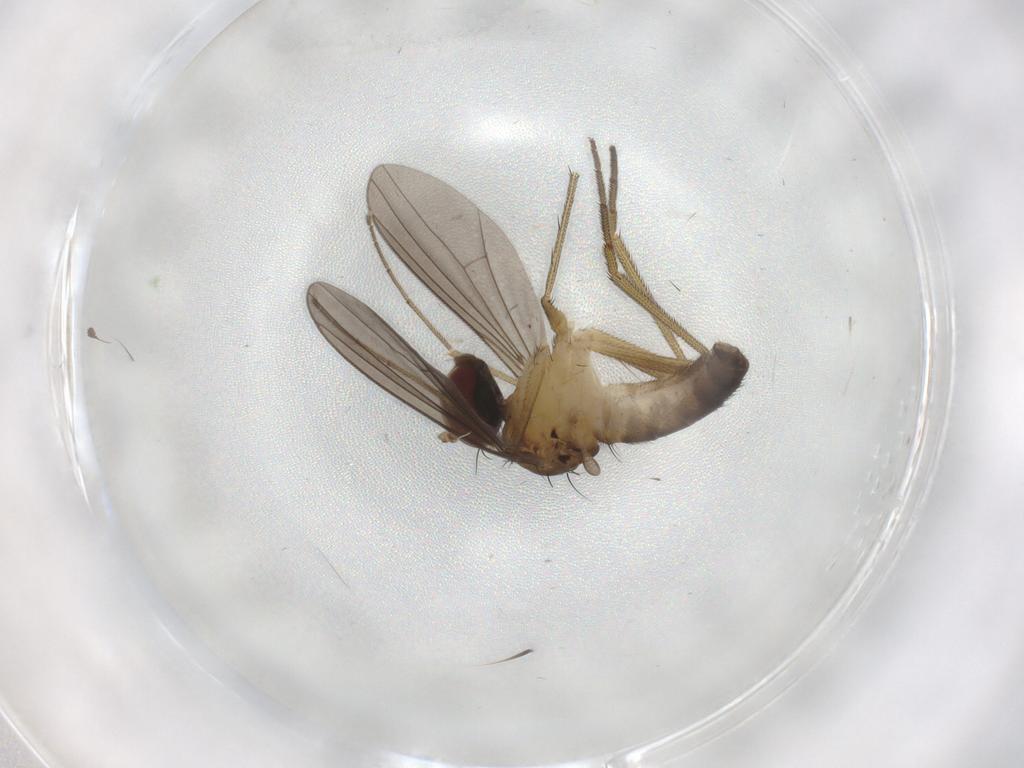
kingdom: Animalia
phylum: Arthropoda
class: Insecta
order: Diptera
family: Dolichopodidae
